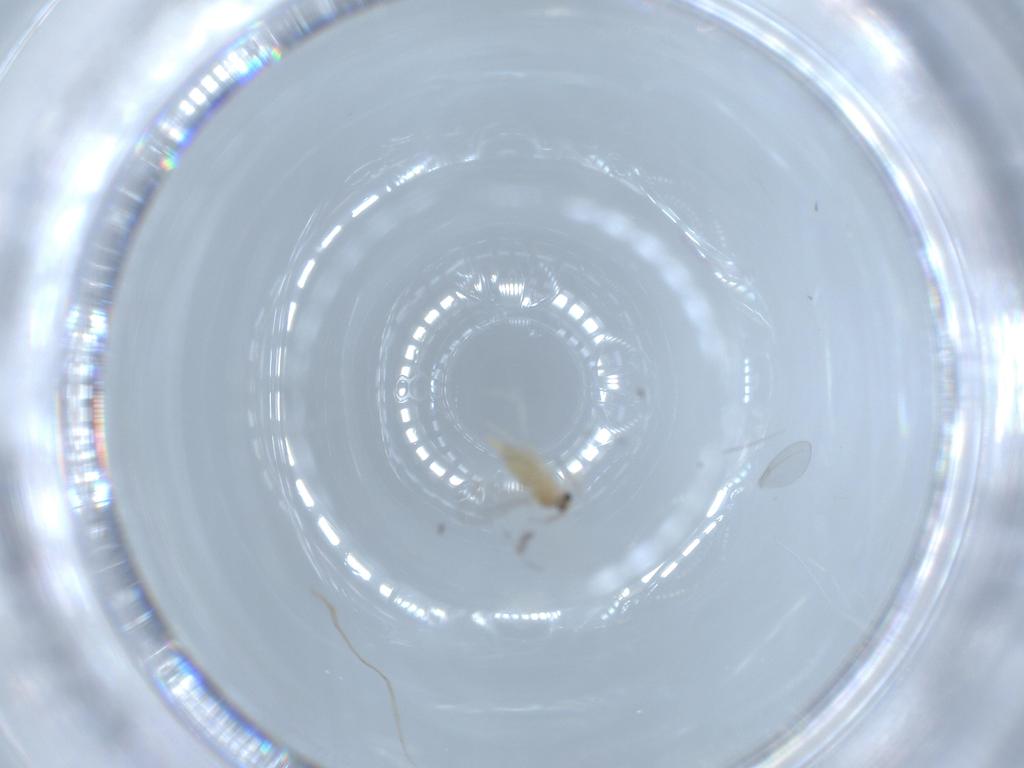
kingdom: Animalia
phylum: Arthropoda
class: Insecta
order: Diptera
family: Cecidomyiidae
